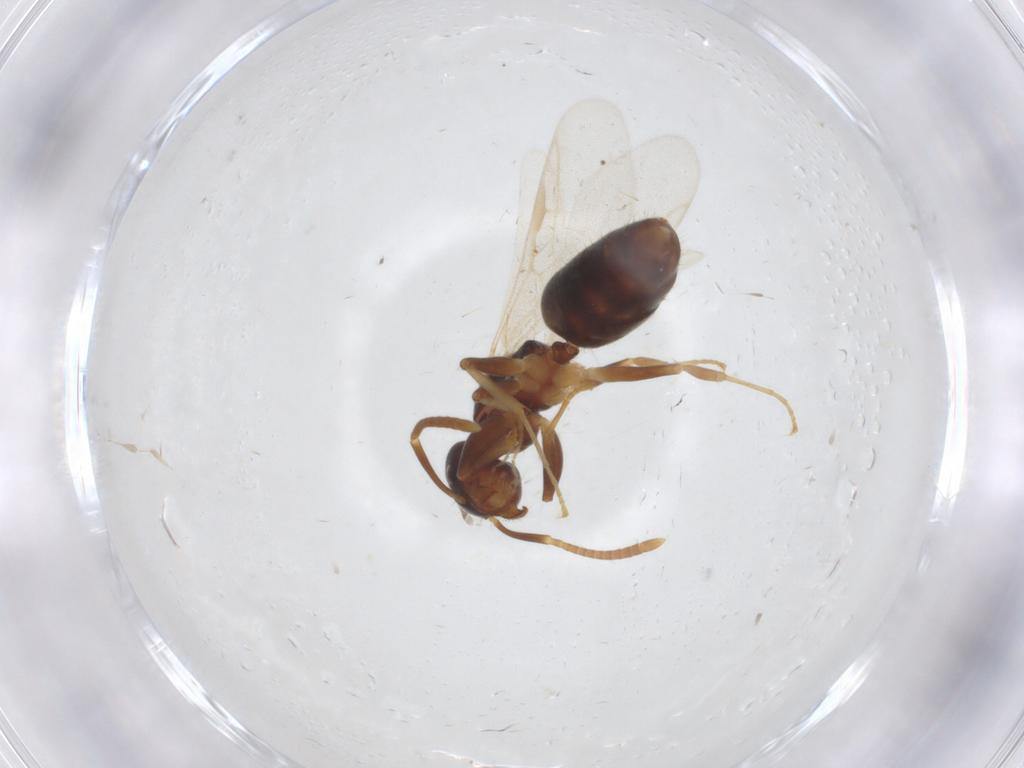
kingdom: Animalia
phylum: Arthropoda
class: Insecta
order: Hymenoptera
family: Formicidae
